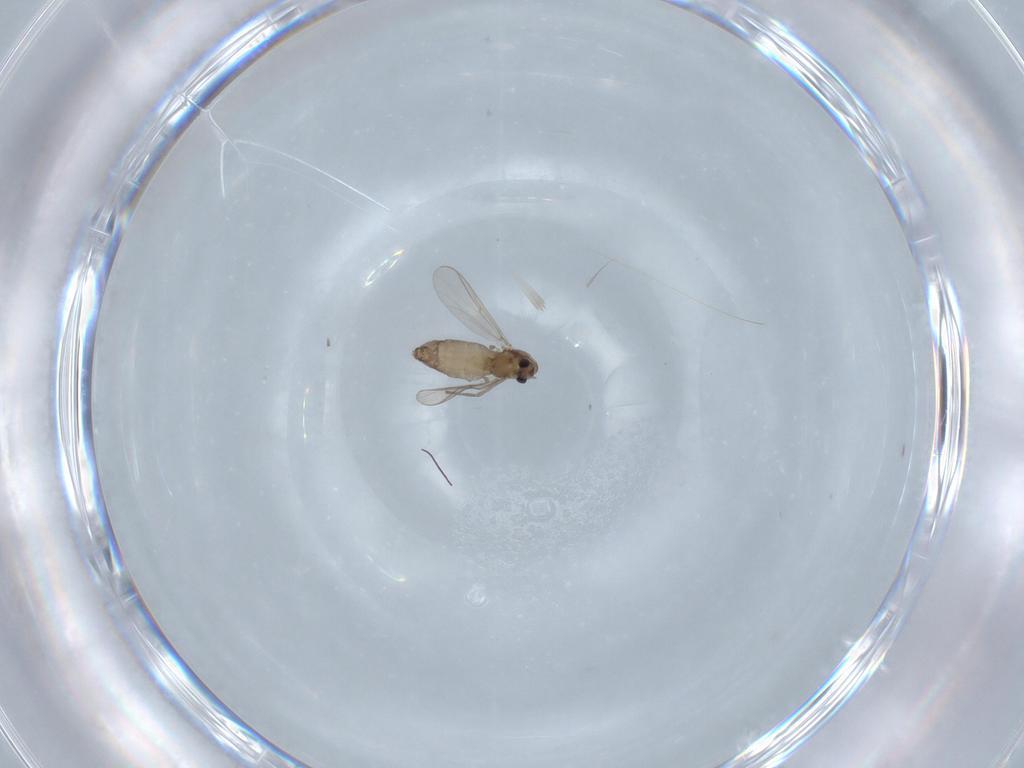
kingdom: Animalia
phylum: Arthropoda
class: Insecta
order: Diptera
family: Chironomidae
